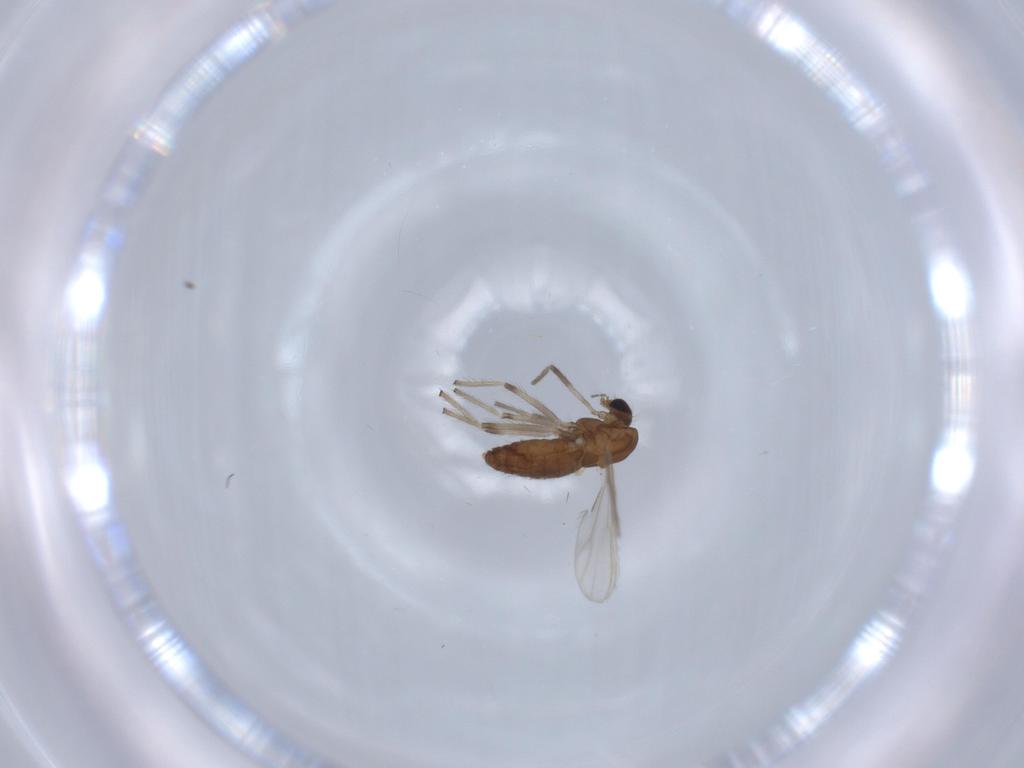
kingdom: Animalia
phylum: Arthropoda
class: Insecta
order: Diptera
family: Chironomidae
